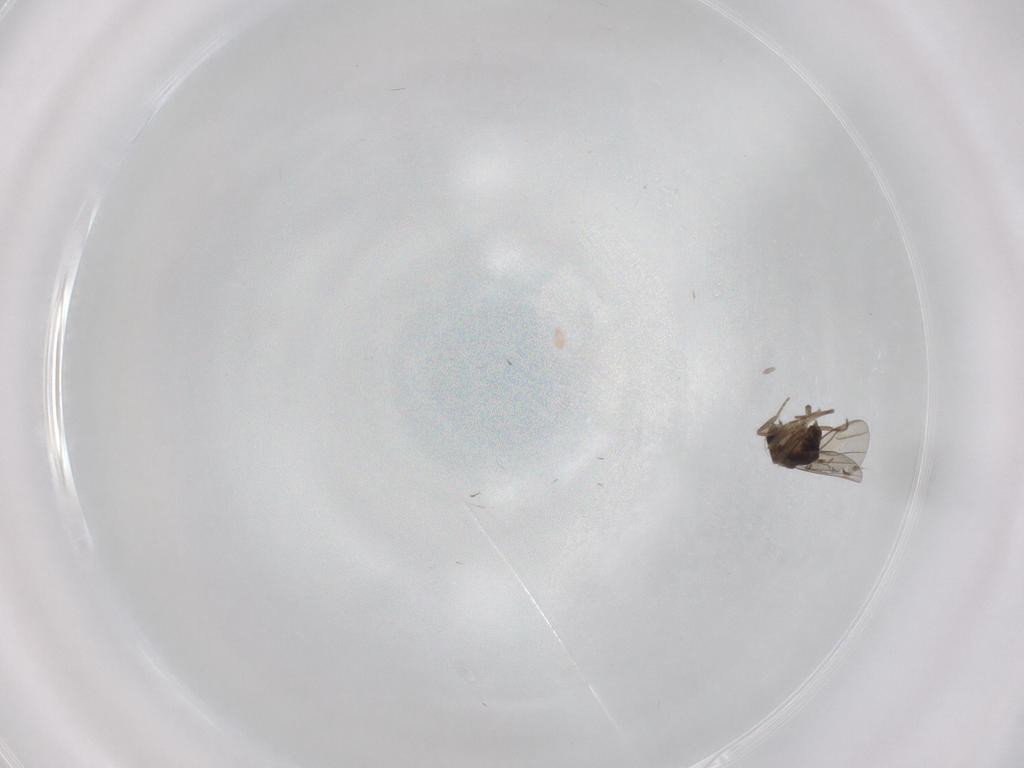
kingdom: Animalia
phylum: Arthropoda
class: Insecta
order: Diptera
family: Phoridae
